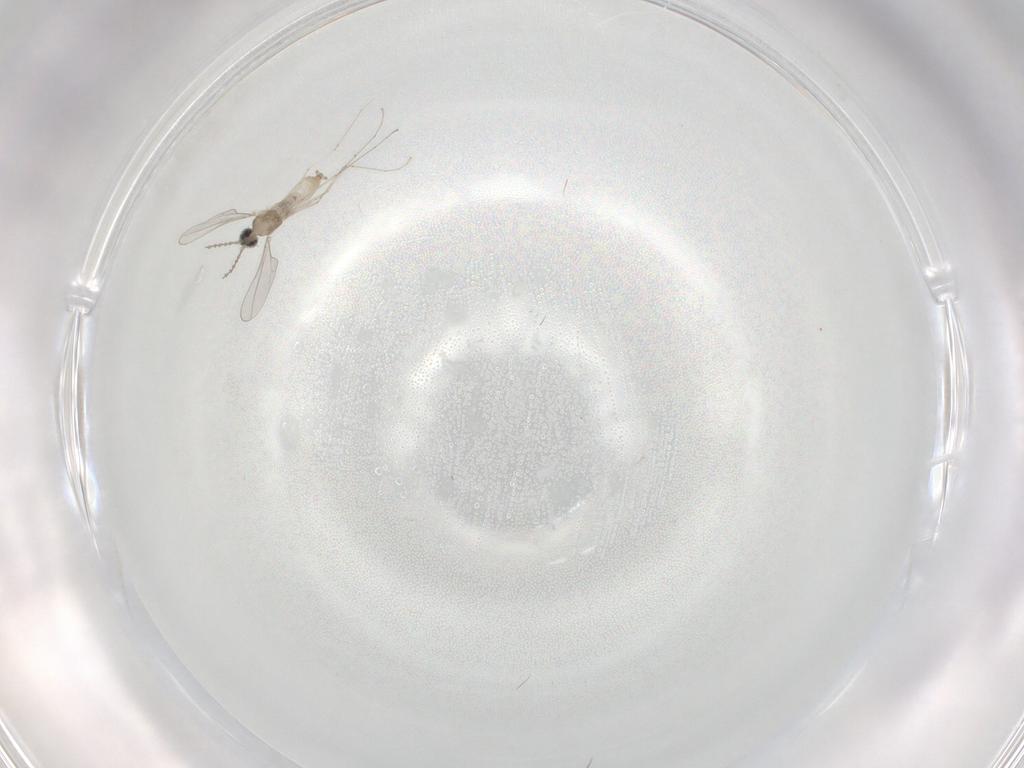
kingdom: Animalia
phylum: Arthropoda
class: Insecta
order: Diptera
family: Cecidomyiidae
